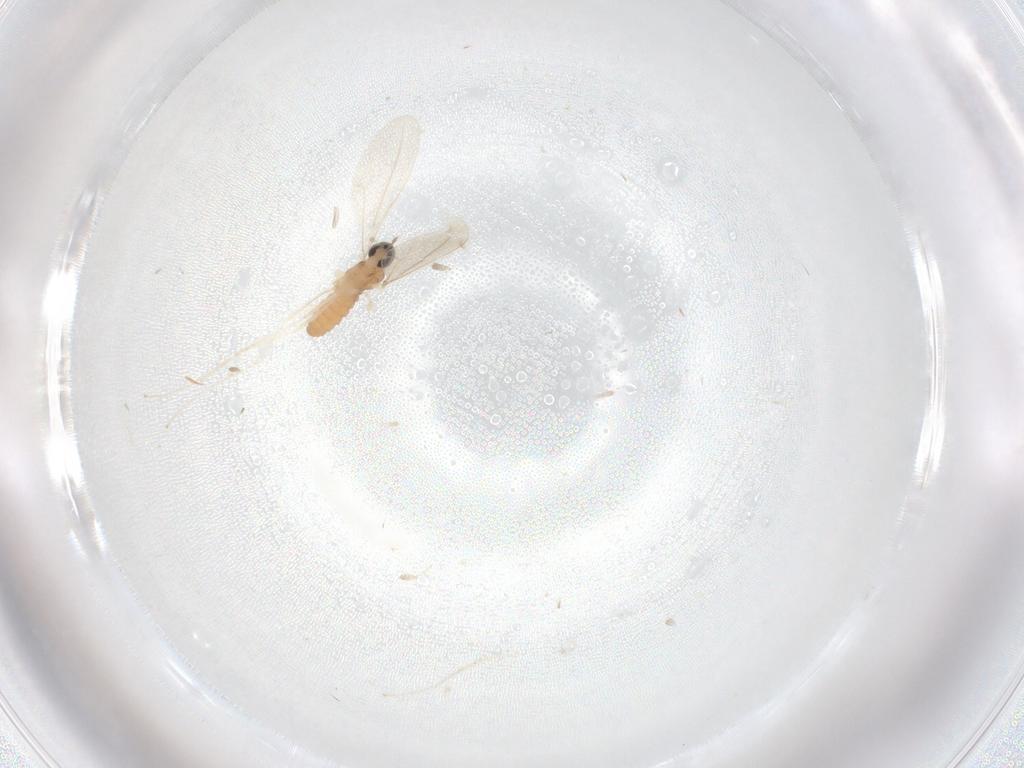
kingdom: Animalia
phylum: Arthropoda
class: Insecta
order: Diptera
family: Cecidomyiidae
